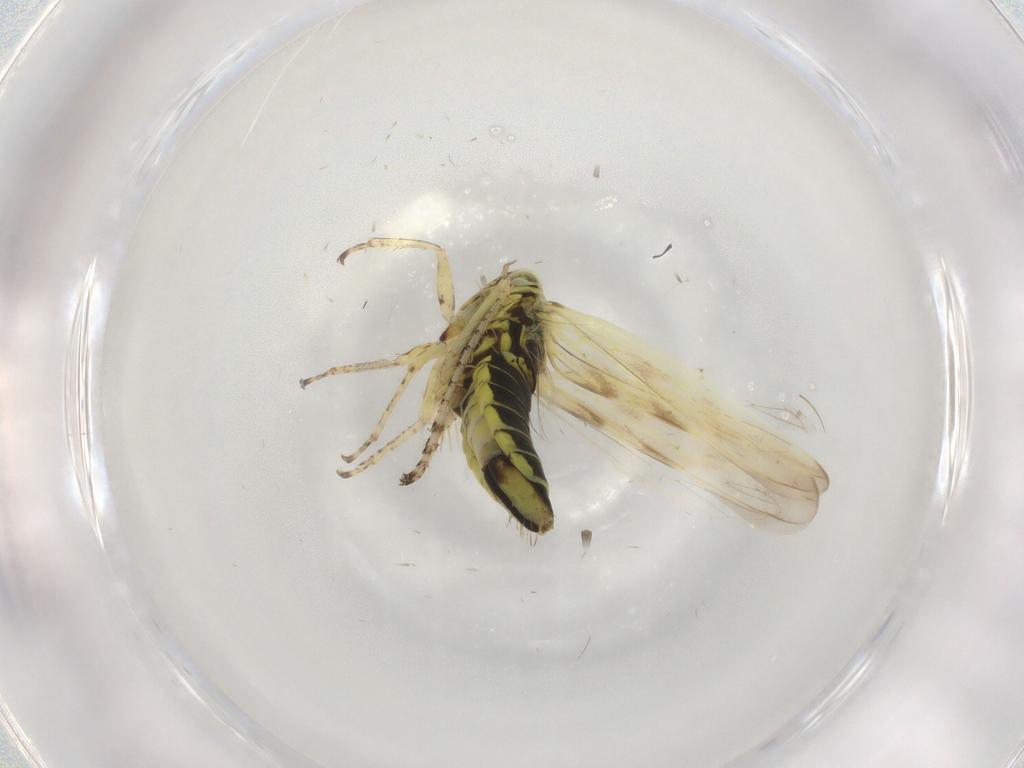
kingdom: Animalia
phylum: Arthropoda
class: Insecta
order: Hemiptera
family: Cicadellidae
